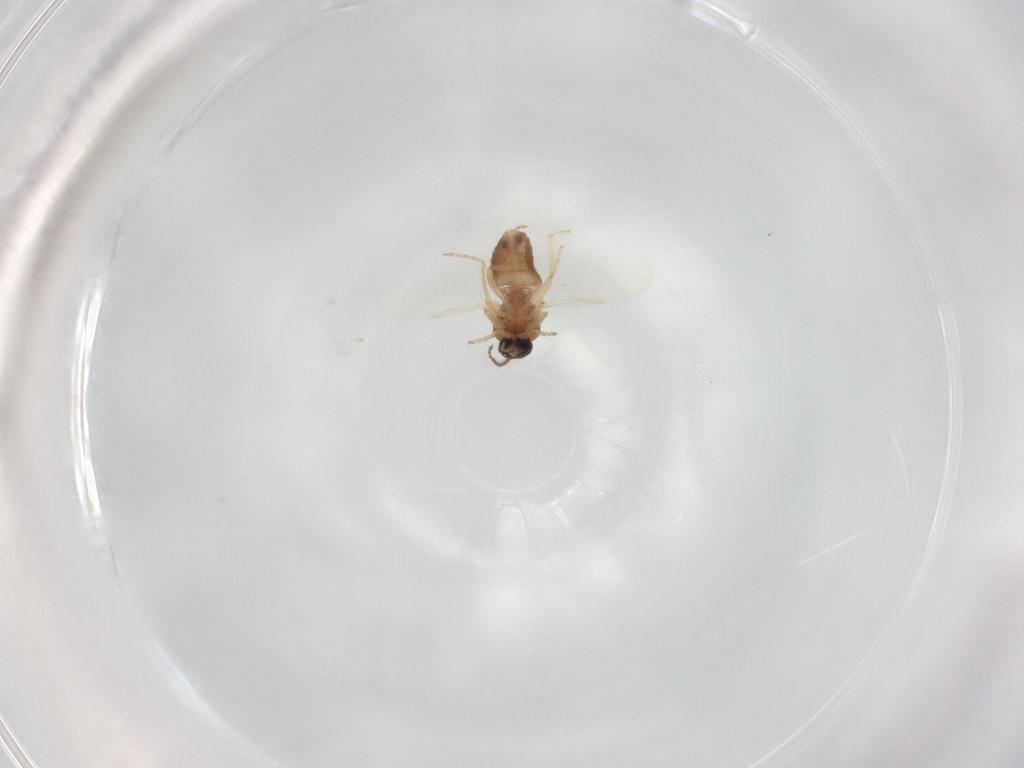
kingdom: Animalia
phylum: Arthropoda
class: Insecta
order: Diptera
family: Ceratopogonidae
